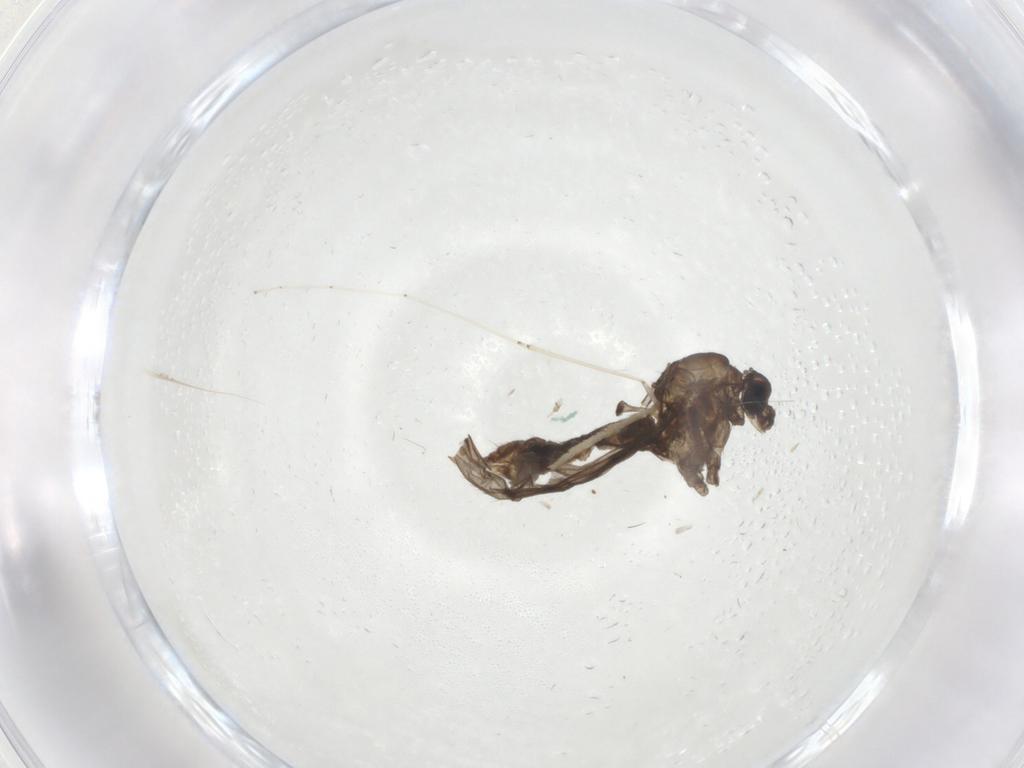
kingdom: Animalia
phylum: Arthropoda
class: Insecta
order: Diptera
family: Cecidomyiidae
